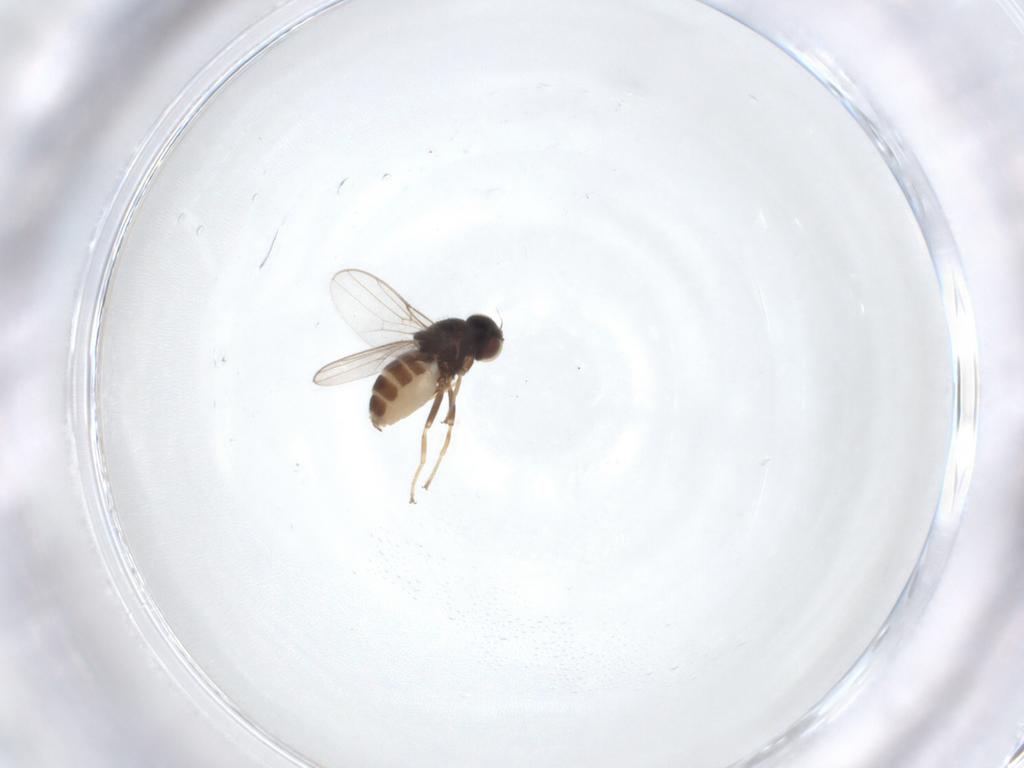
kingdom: Animalia
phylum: Arthropoda
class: Insecta
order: Diptera
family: Chloropidae
